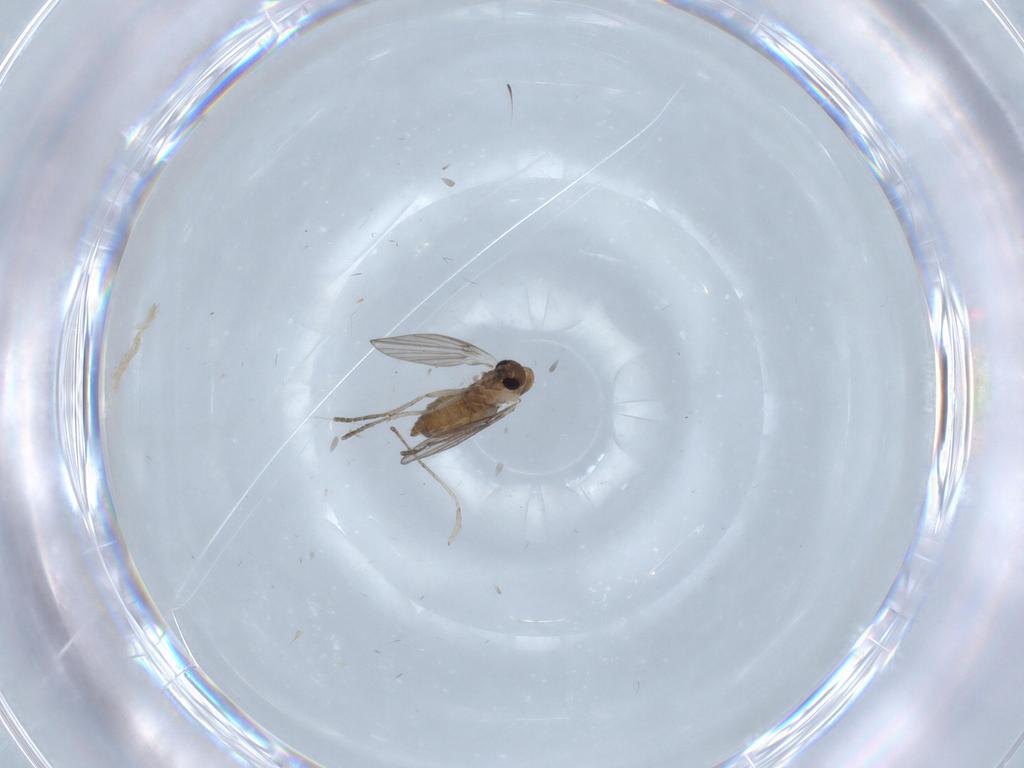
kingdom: Animalia
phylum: Arthropoda
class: Insecta
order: Diptera
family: Psychodidae
